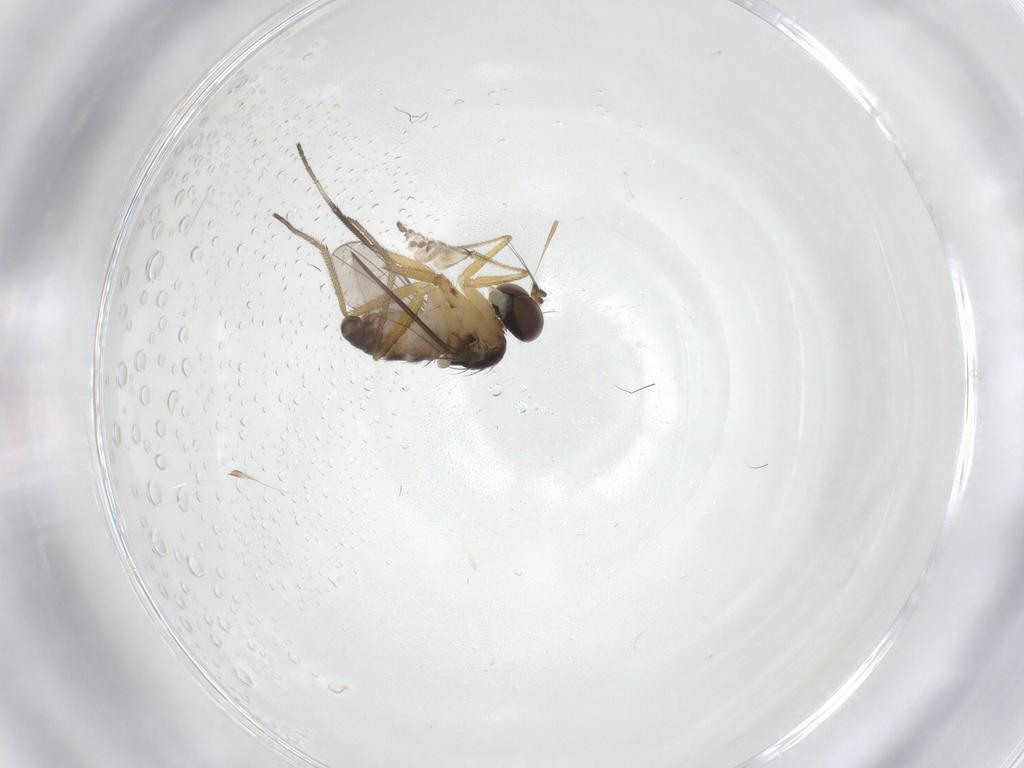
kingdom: Animalia
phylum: Arthropoda
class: Insecta
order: Diptera
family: Dolichopodidae
